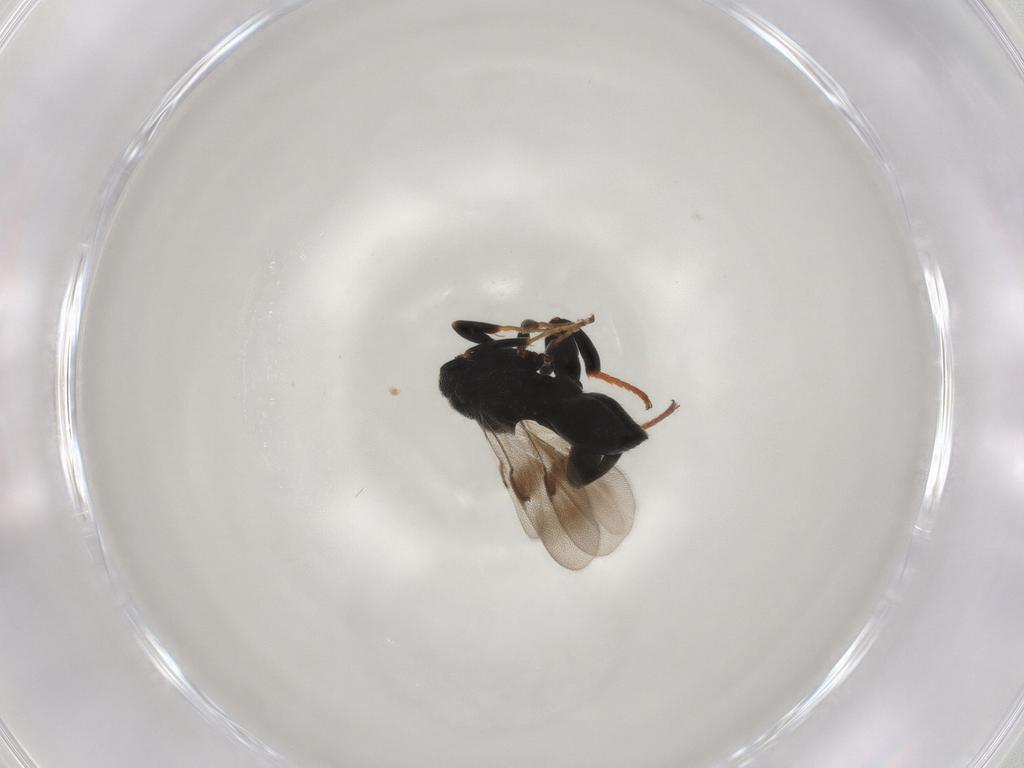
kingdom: Animalia
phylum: Arthropoda
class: Insecta
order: Hymenoptera
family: Chalcididae
